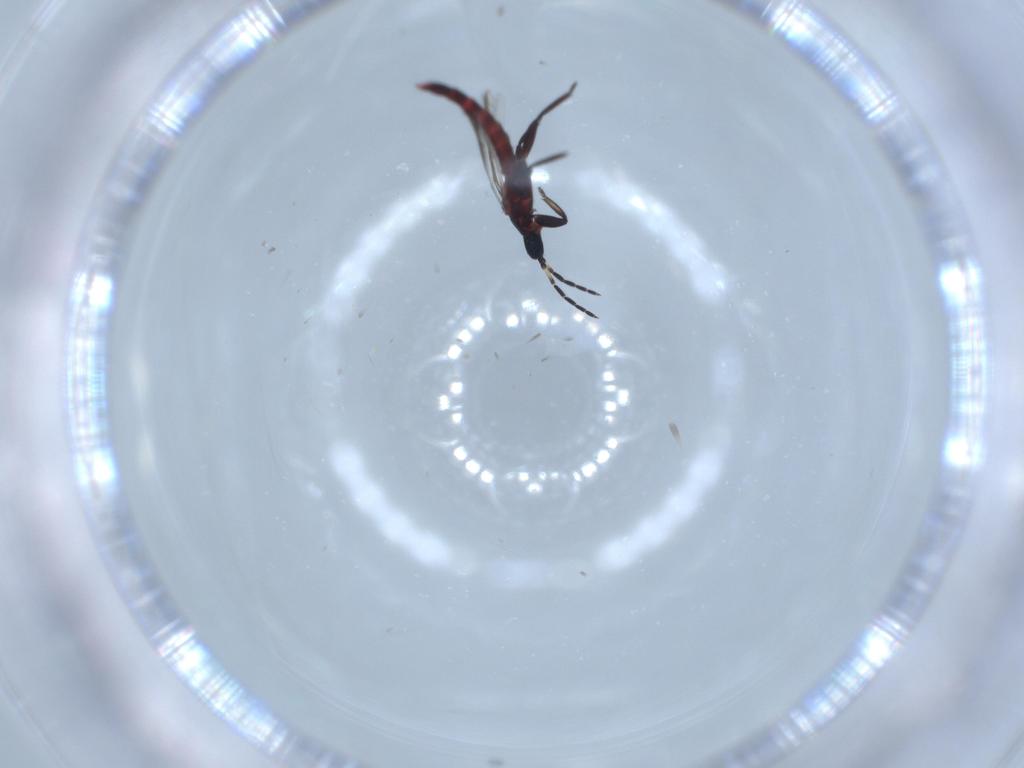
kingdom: Animalia
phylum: Arthropoda
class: Insecta
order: Thysanoptera
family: Aeolothripidae
